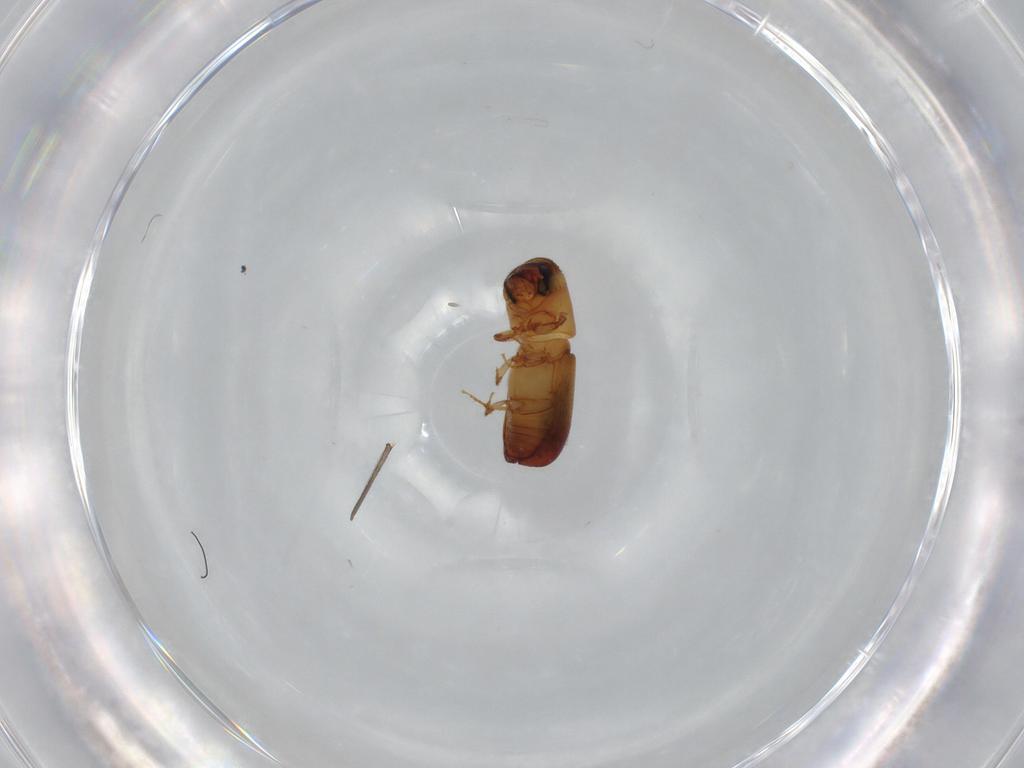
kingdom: Animalia
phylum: Arthropoda
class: Insecta
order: Coleoptera
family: Curculionidae
